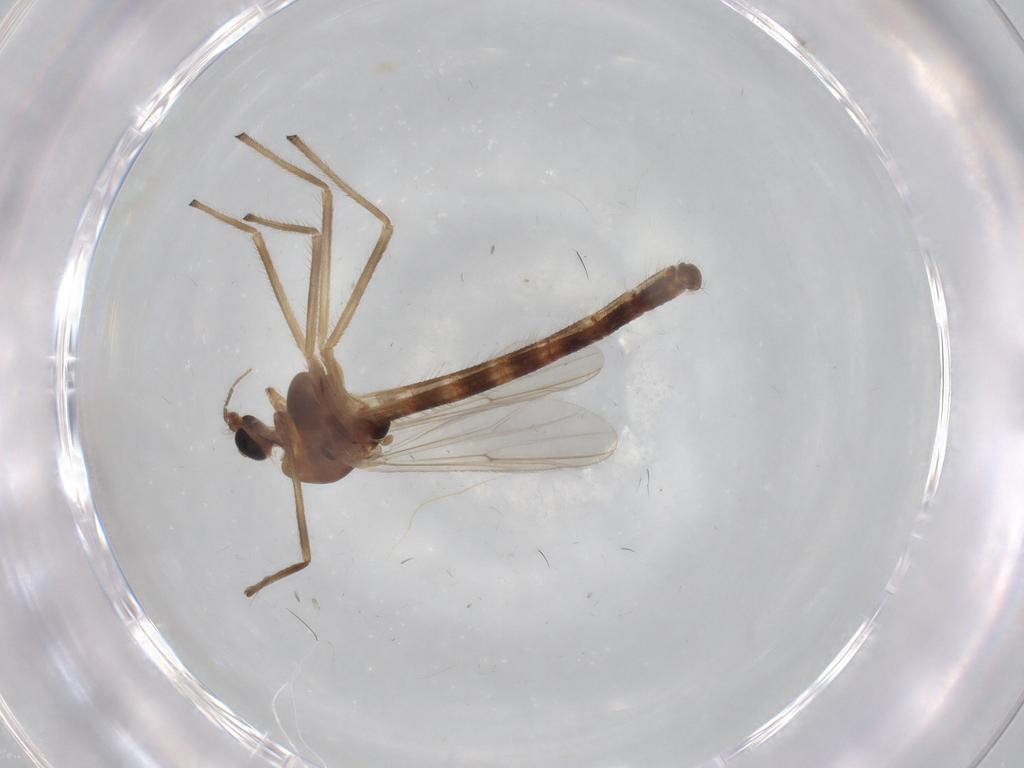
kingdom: Animalia
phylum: Arthropoda
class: Insecta
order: Diptera
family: Chironomidae
